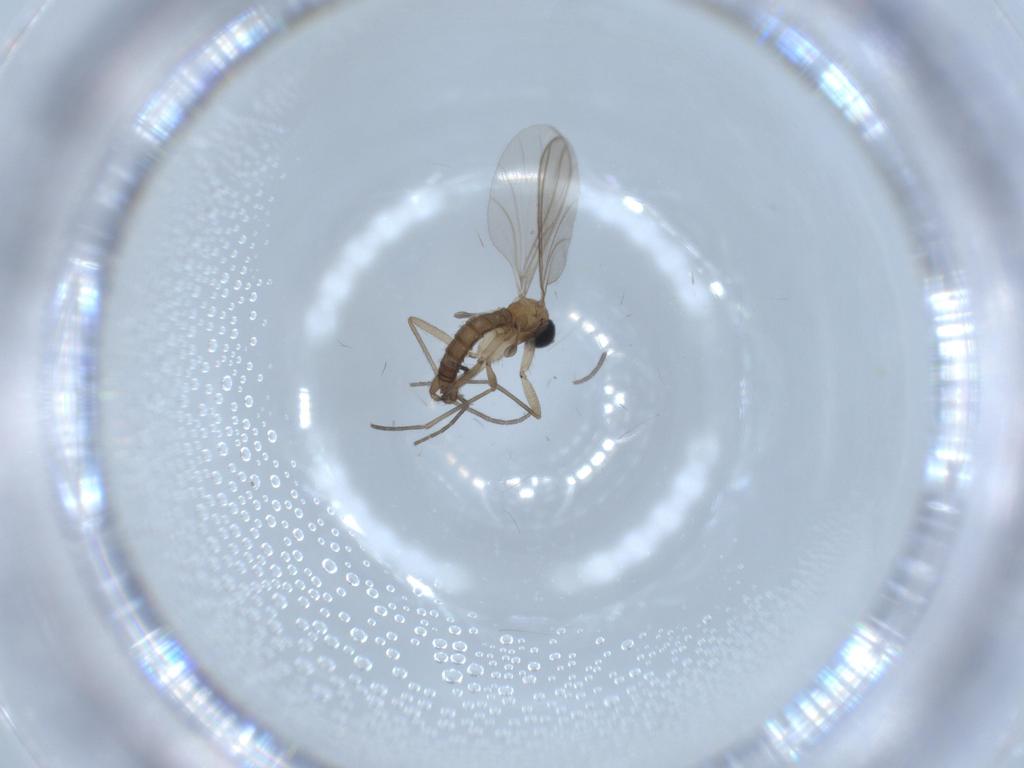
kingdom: Animalia
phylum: Arthropoda
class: Insecta
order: Diptera
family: Sciaridae
